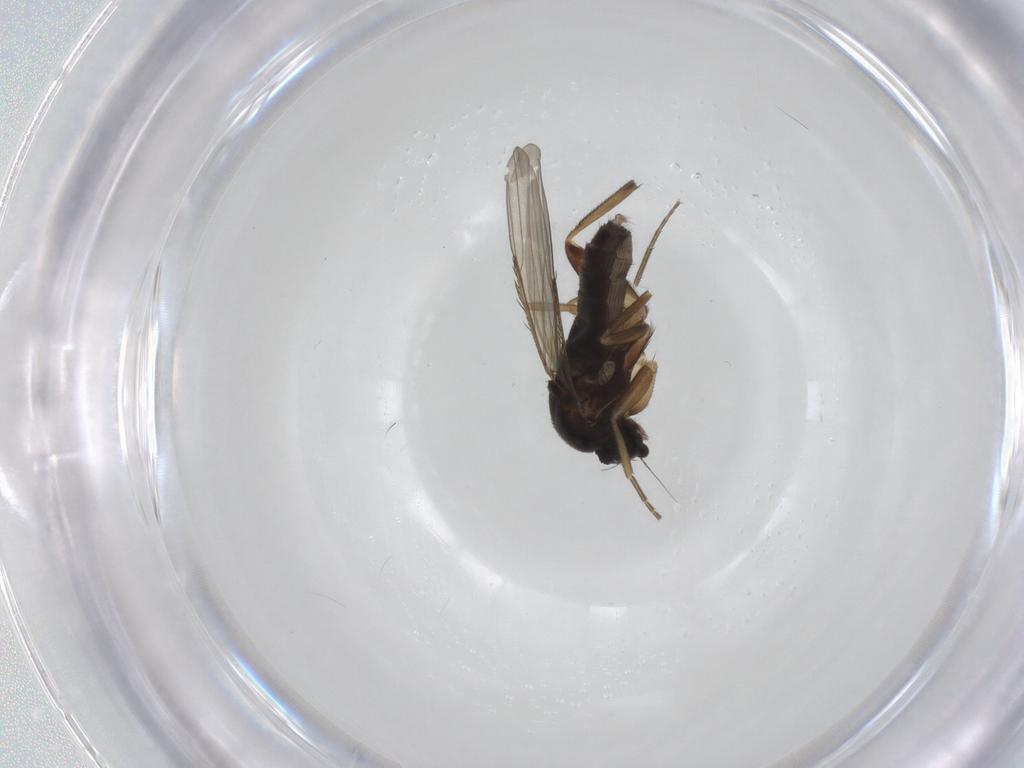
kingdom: Animalia
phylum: Arthropoda
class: Insecta
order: Diptera
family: Phoridae
